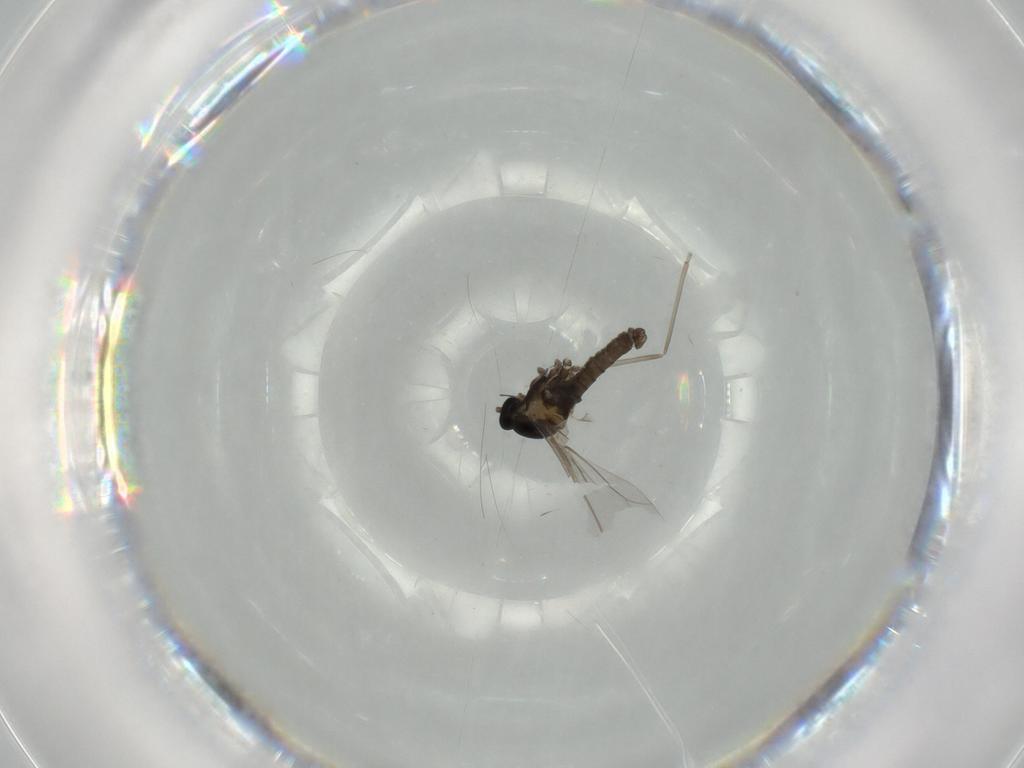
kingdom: Animalia
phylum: Arthropoda
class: Insecta
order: Diptera
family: Cecidomyiidae
